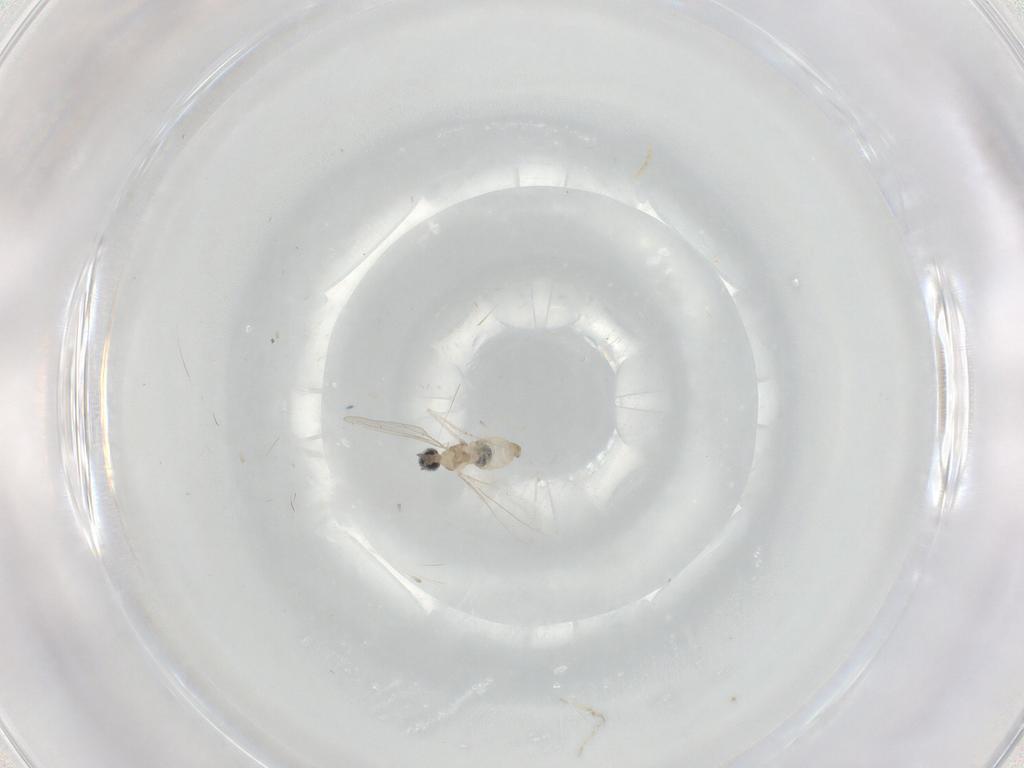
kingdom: Animalia
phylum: Arthropoda
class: Insecta
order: Diptera
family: Cecidomyiidae
